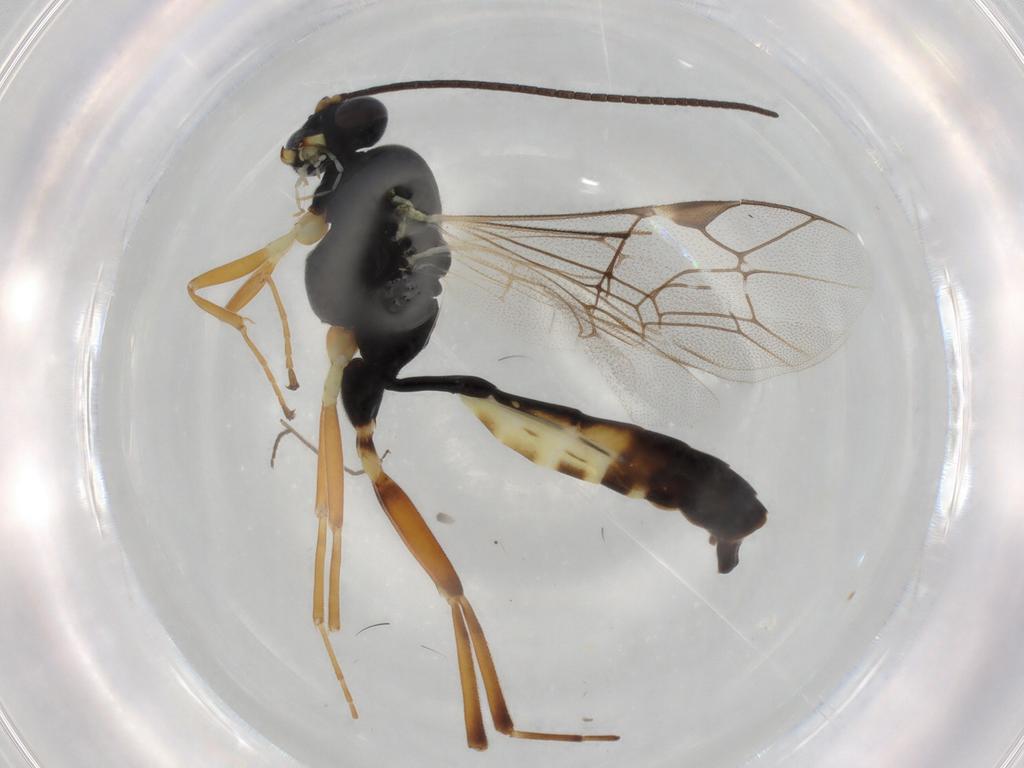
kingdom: Animalia
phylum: Arthropoda
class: Insecta
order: Hymenoptera
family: Ichneumonidae
